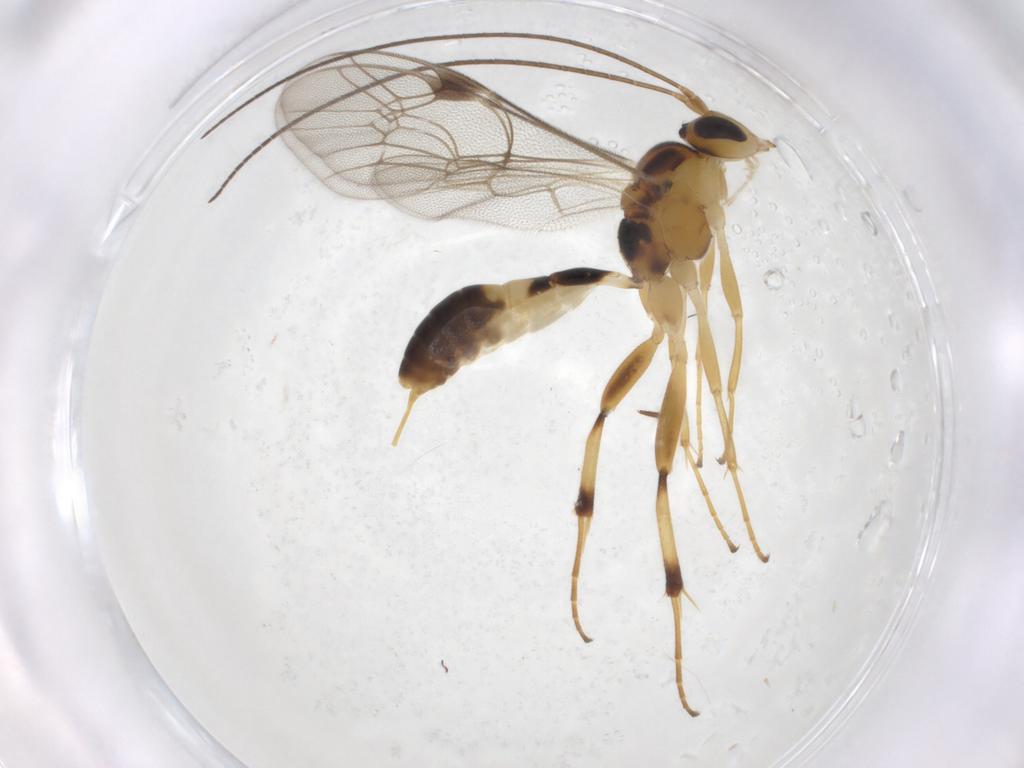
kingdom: Animalia
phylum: Arthropoda
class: Insecta
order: Hymenoptera
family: Ichneumonidae
